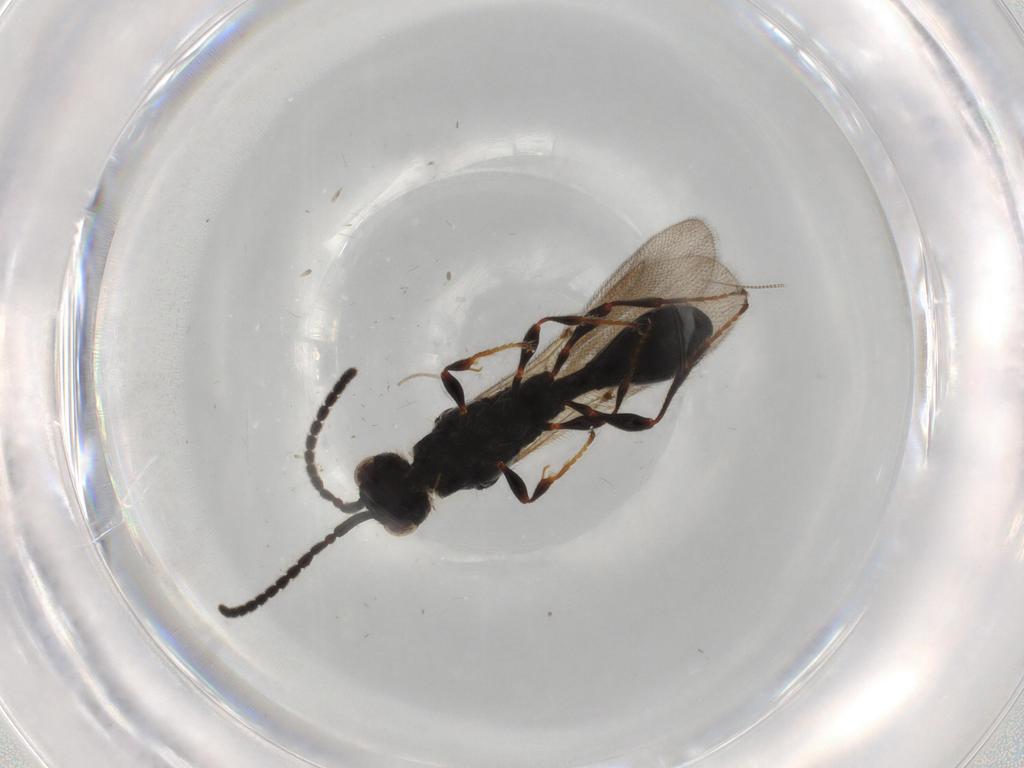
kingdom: Animalia
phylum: Arthropoda
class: Insecta
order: Hymenoptera
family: Diapriidae
